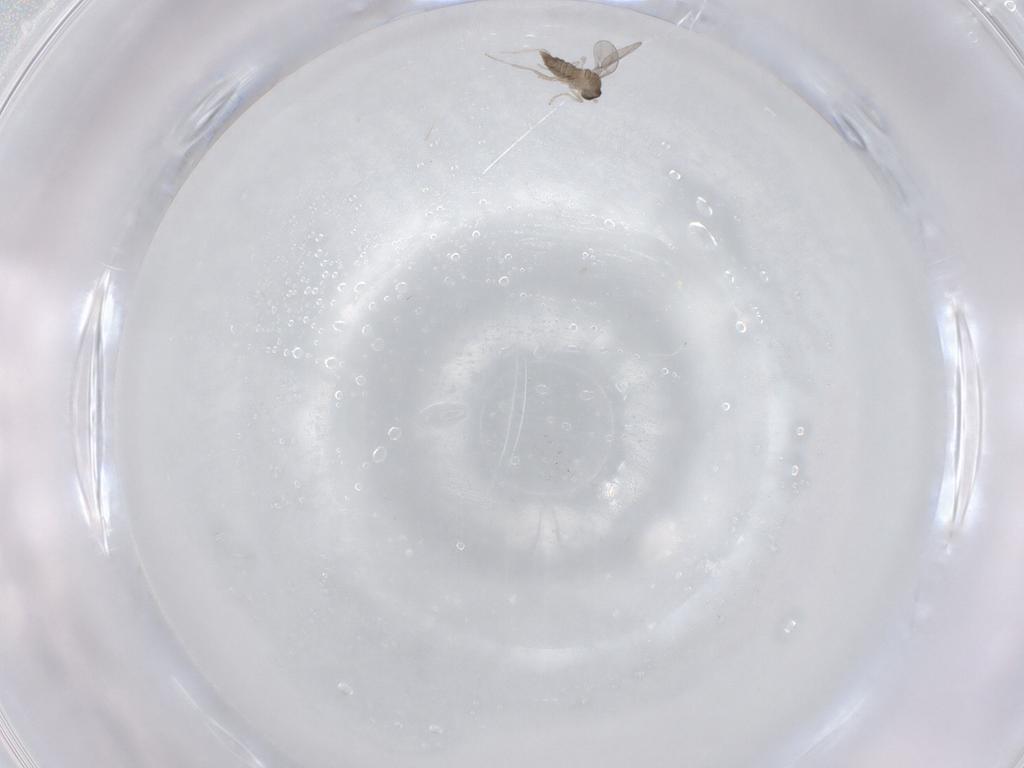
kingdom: Animalia
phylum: Arthropoda
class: Insecta
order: Diptera
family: Cecidomyiidae
